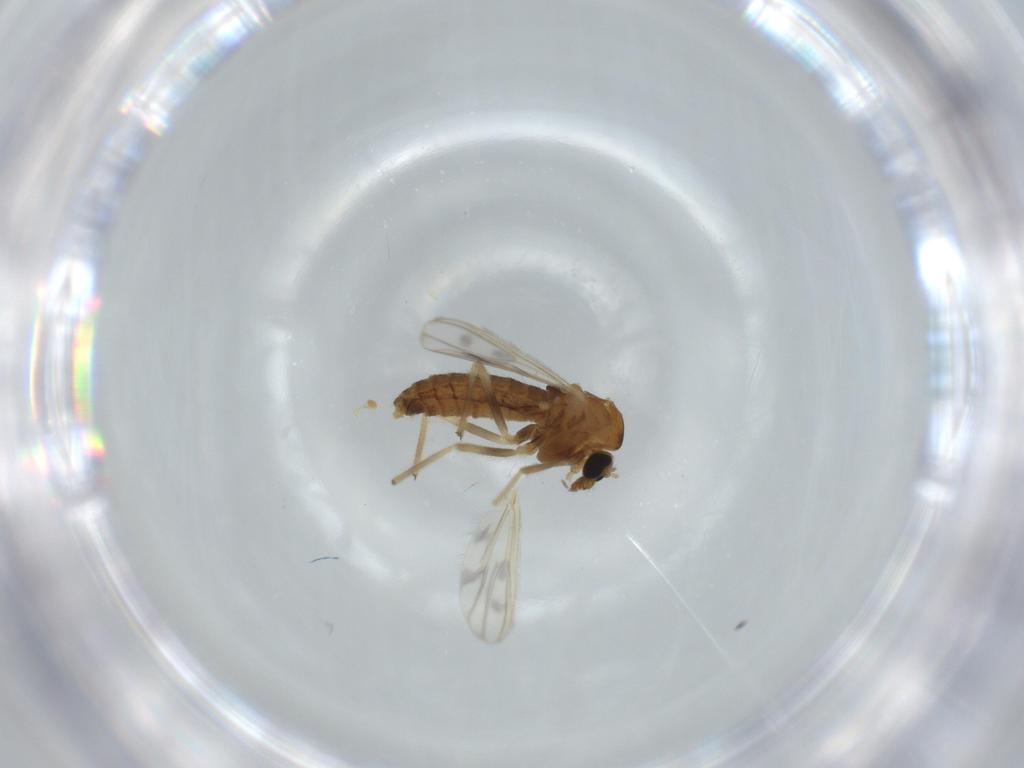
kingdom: Animalia
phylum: Arthropoda
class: Insecta
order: Diptera
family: Chironomidae
